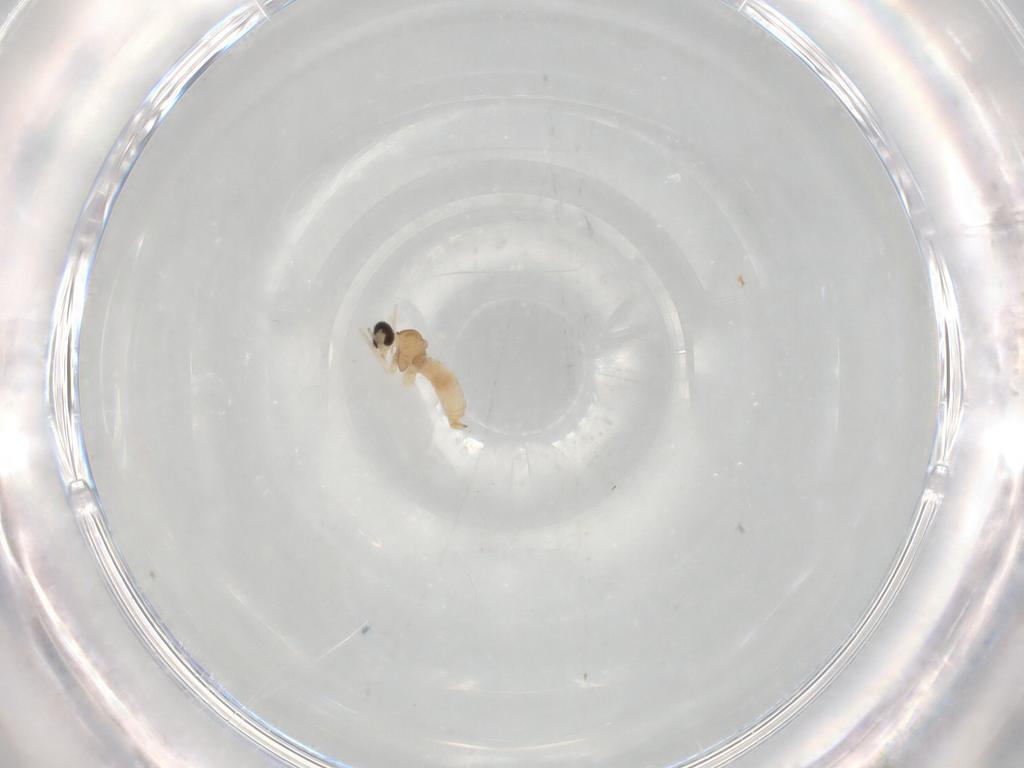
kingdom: Animalia
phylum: Arthropoda
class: Insecta
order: Diptera
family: Cecidomyiidae
